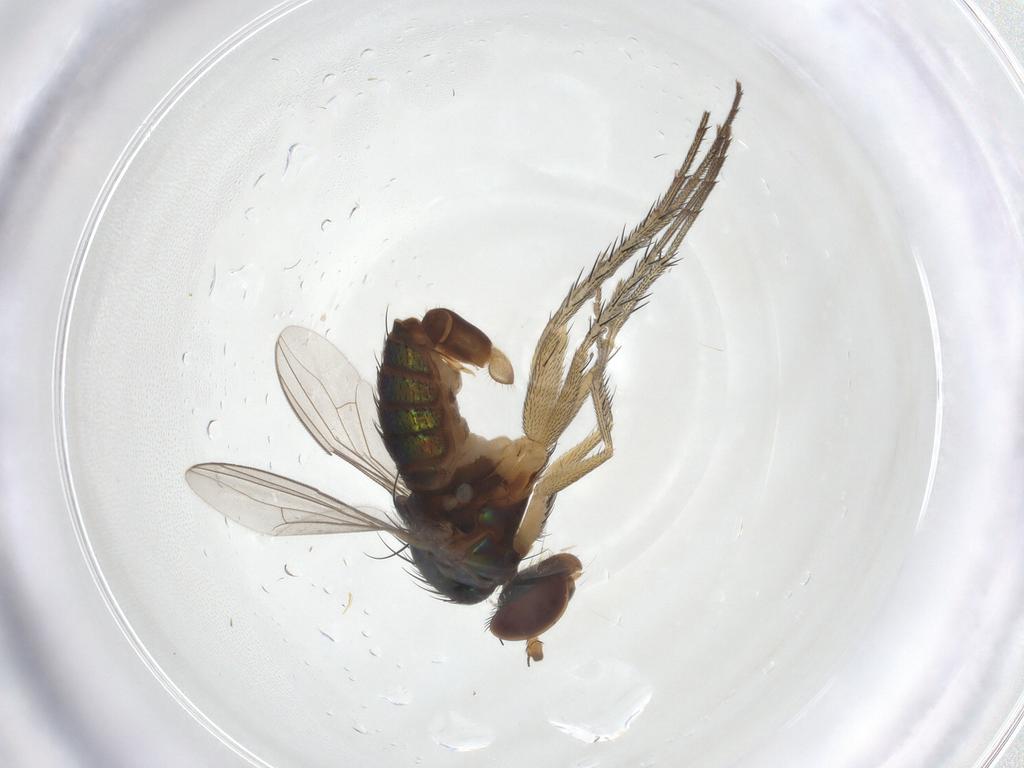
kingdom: Animalia
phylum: Arthropoda
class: Insecta
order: Diptera
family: Dolichopodidae
